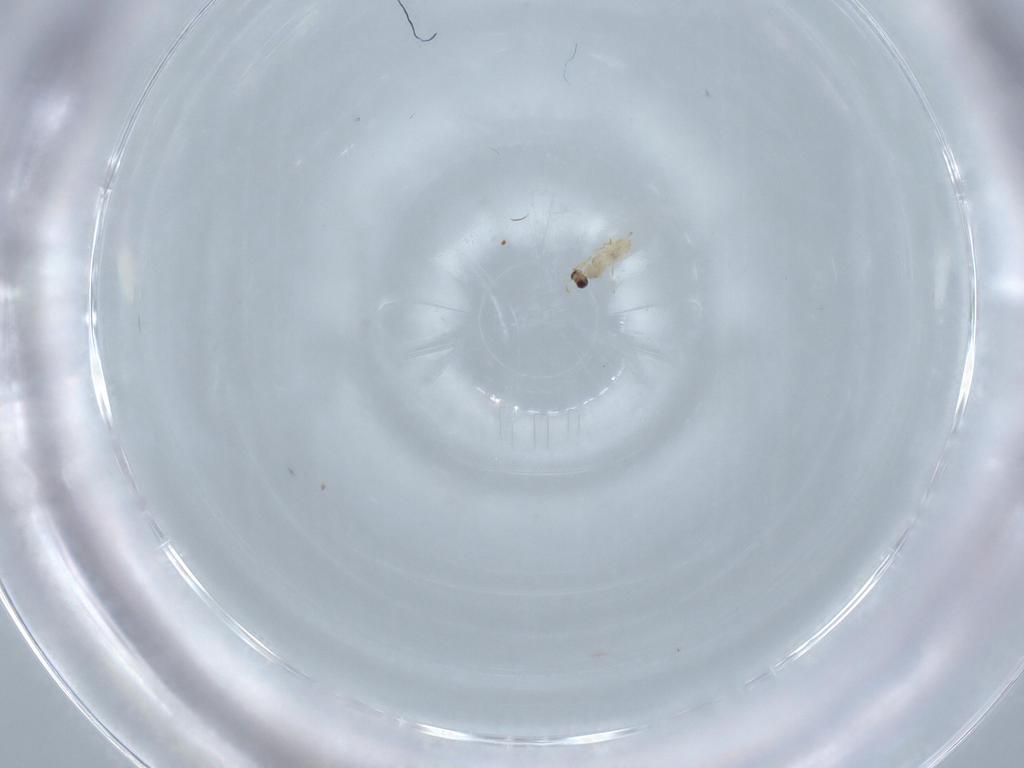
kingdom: Animalia
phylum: Arthropoda
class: Insecta
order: Hymenoptera
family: Mymaridae
